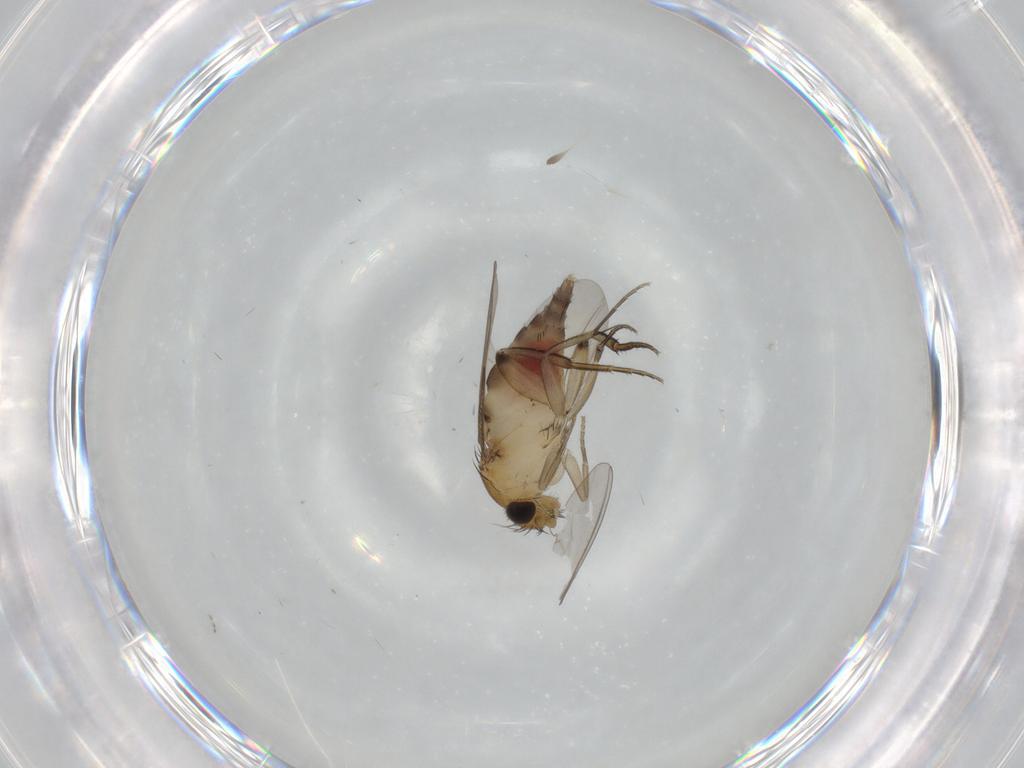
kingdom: Animalia
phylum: Arthropoda
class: Insecta
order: Diptera
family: Phoridae
